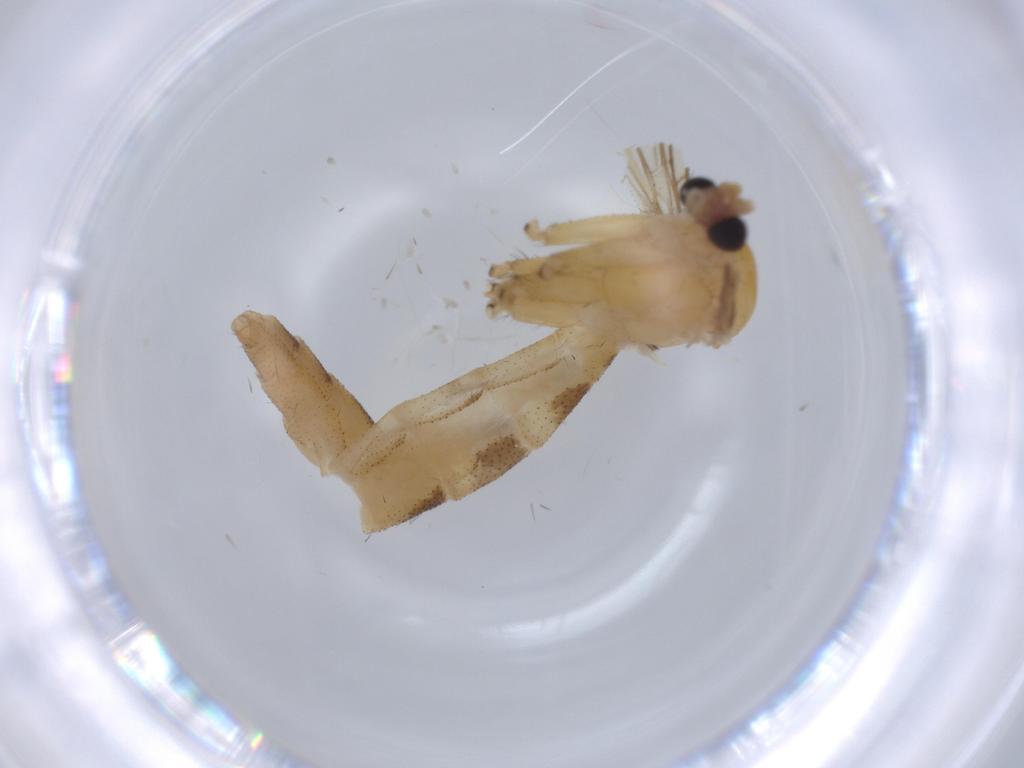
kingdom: Animalia
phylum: Arthropoda
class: Insecta
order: Diptera
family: Keroplatidae
